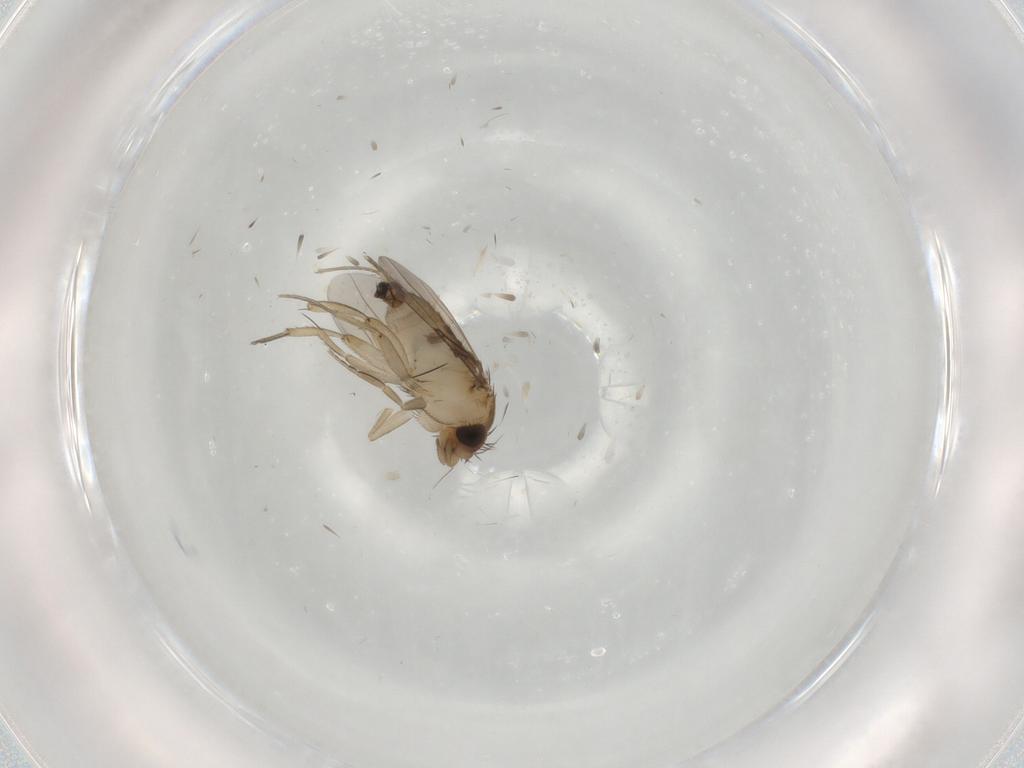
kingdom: Animalia
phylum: Arthropoda
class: Insecta
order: Diptera
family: Phoridae
